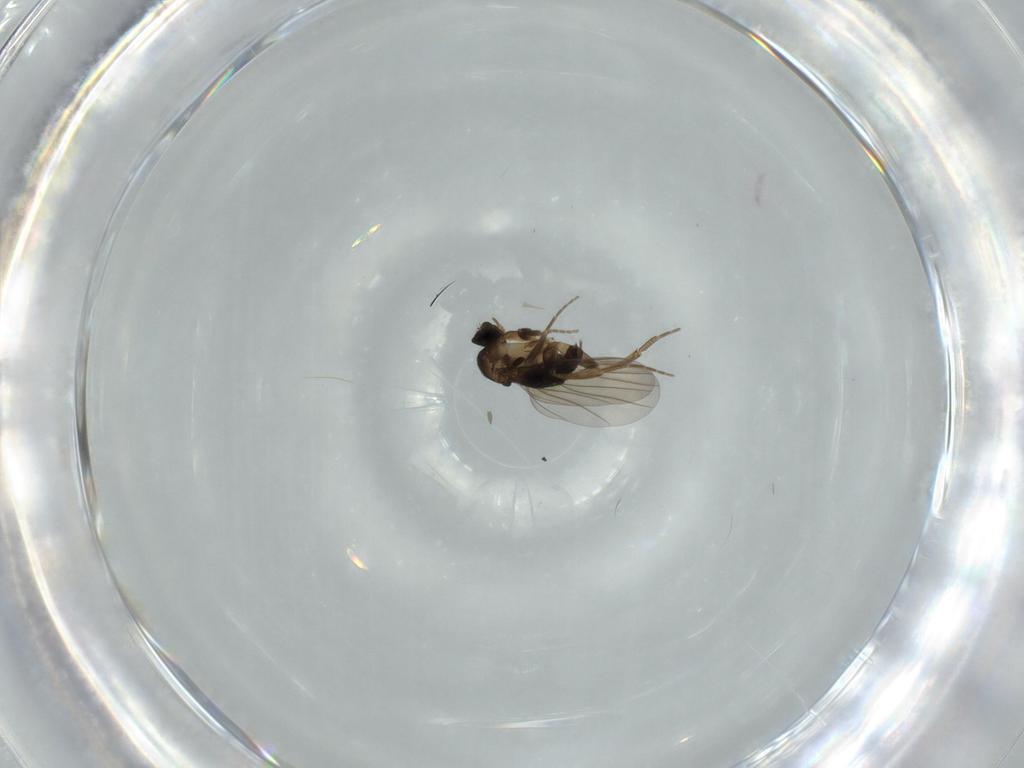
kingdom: Animalia
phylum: Arthropoda
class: Insecta
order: Diptera
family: Phoridae
